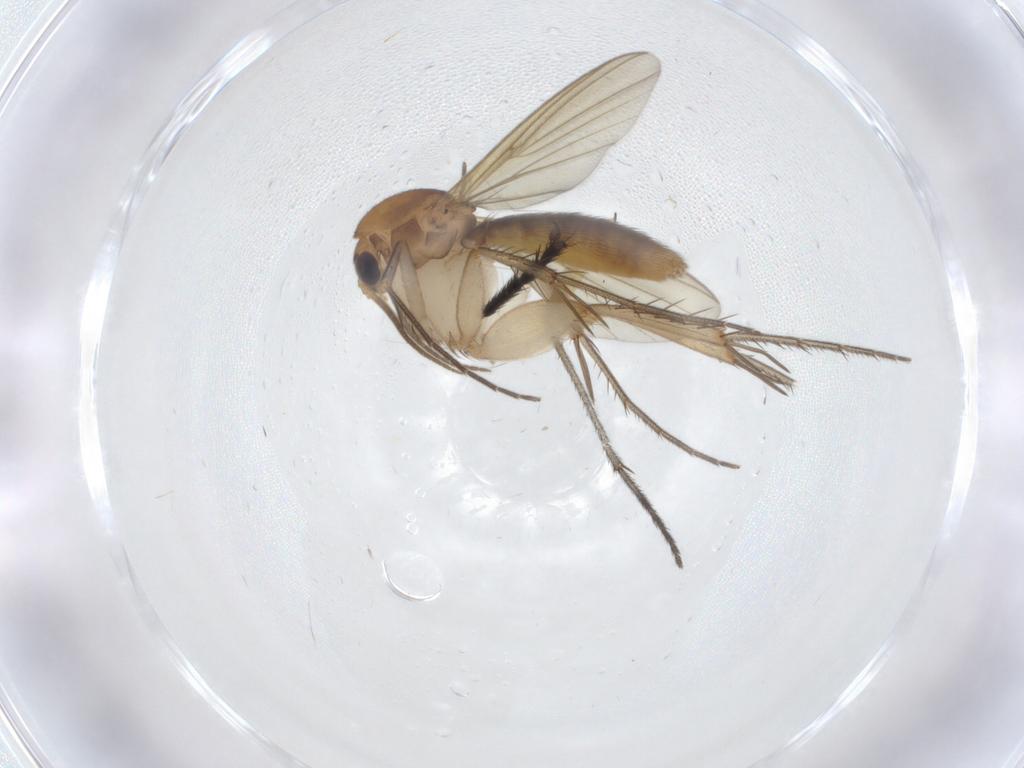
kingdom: Animalia
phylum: Arthropoda
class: Insecta
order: Diptera
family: Mycetophilidae
